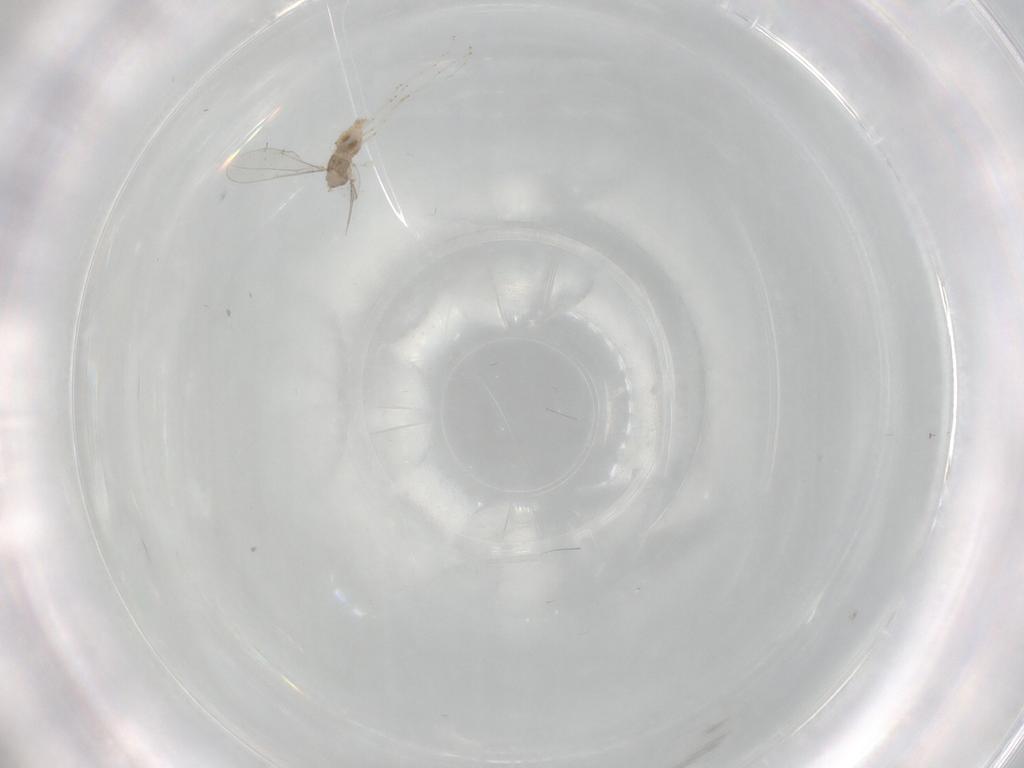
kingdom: Animalia
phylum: Arthropoda
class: Insecta
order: Diptera
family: Cecidomyiidae
